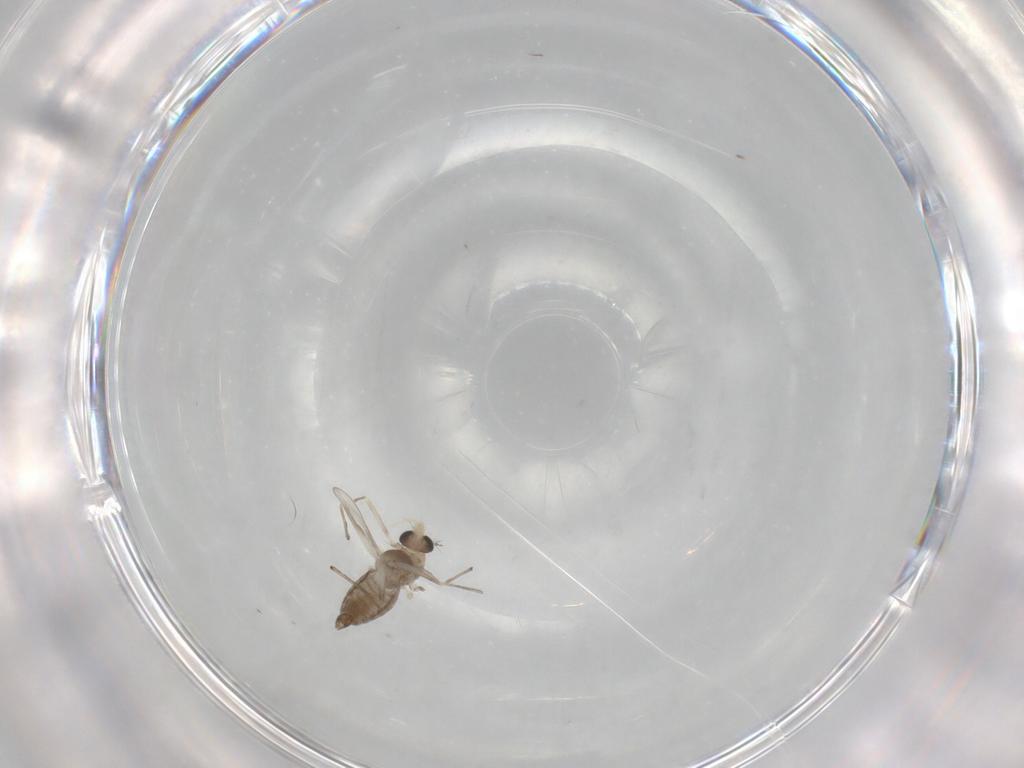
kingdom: Animalia
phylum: Arthropoda
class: Insecta
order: Diptera
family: Chironomidae
